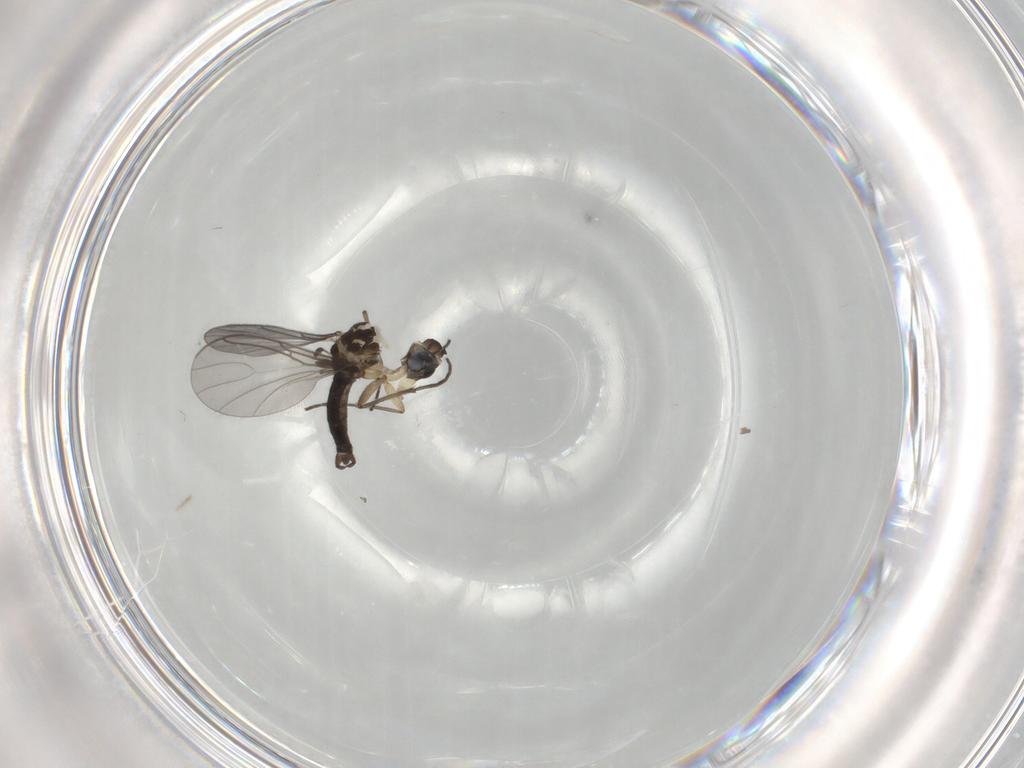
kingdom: Animalia
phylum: Arthropoda
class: Insecta
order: Diptera
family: Sciaridae
